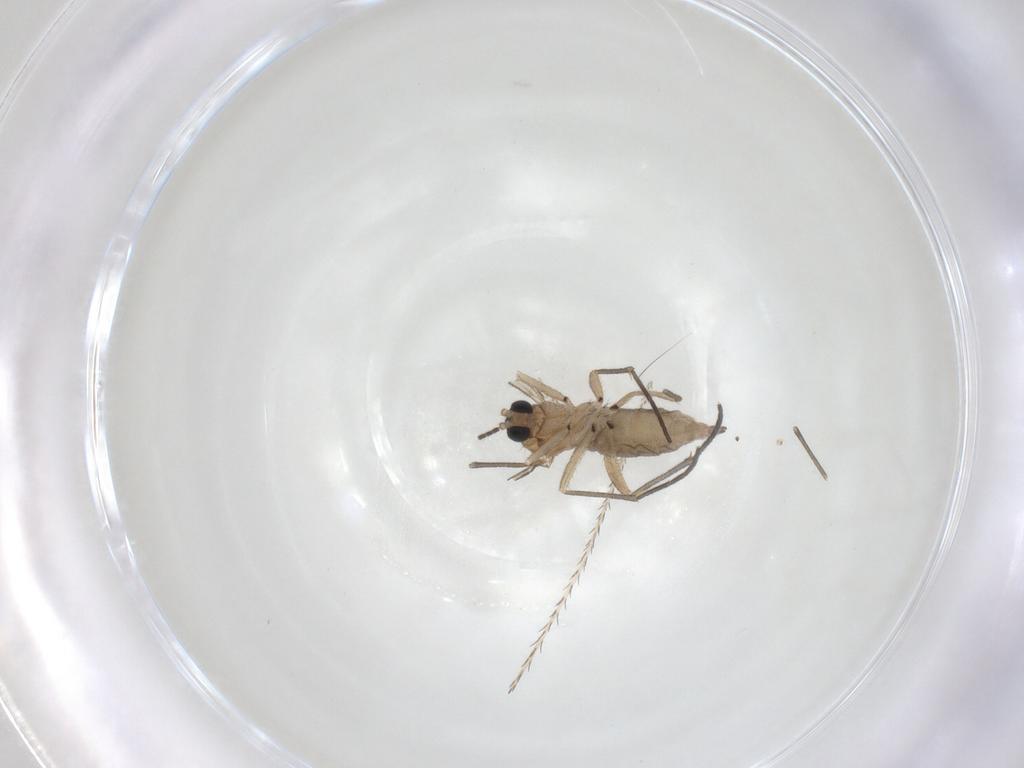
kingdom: Animalia
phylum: Arthropoda
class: Insecta
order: Diptera
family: Sciaridae
